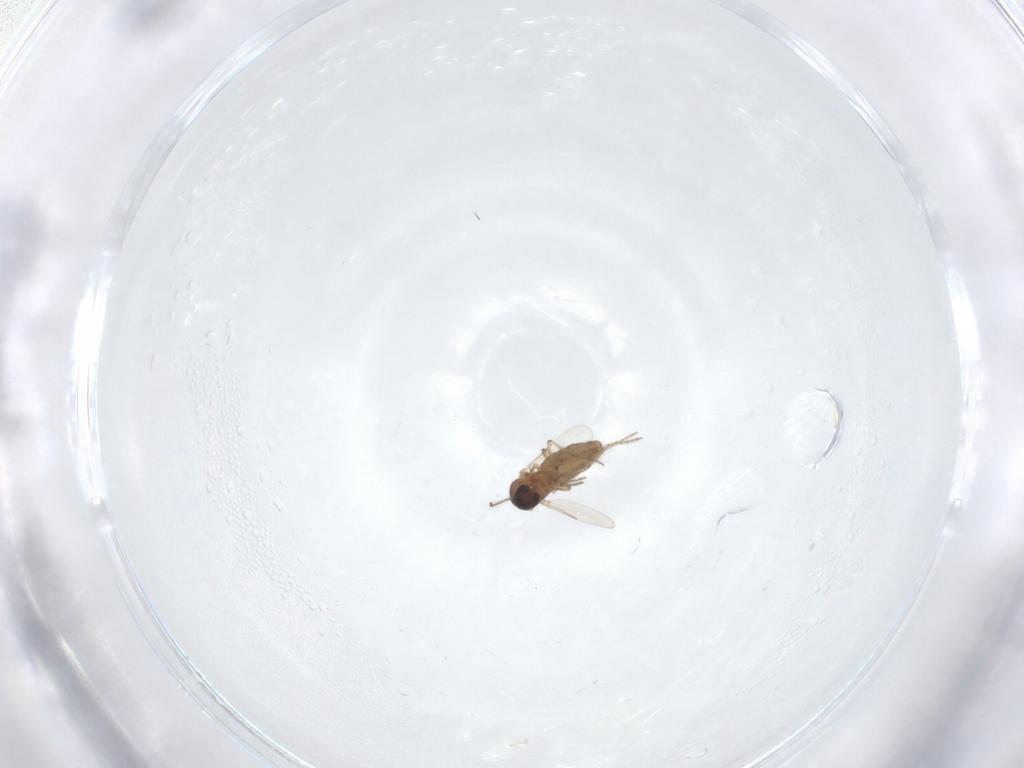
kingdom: Animalia
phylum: Arthropoda
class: Insecta
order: Diptera
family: Ceratopogonidae
